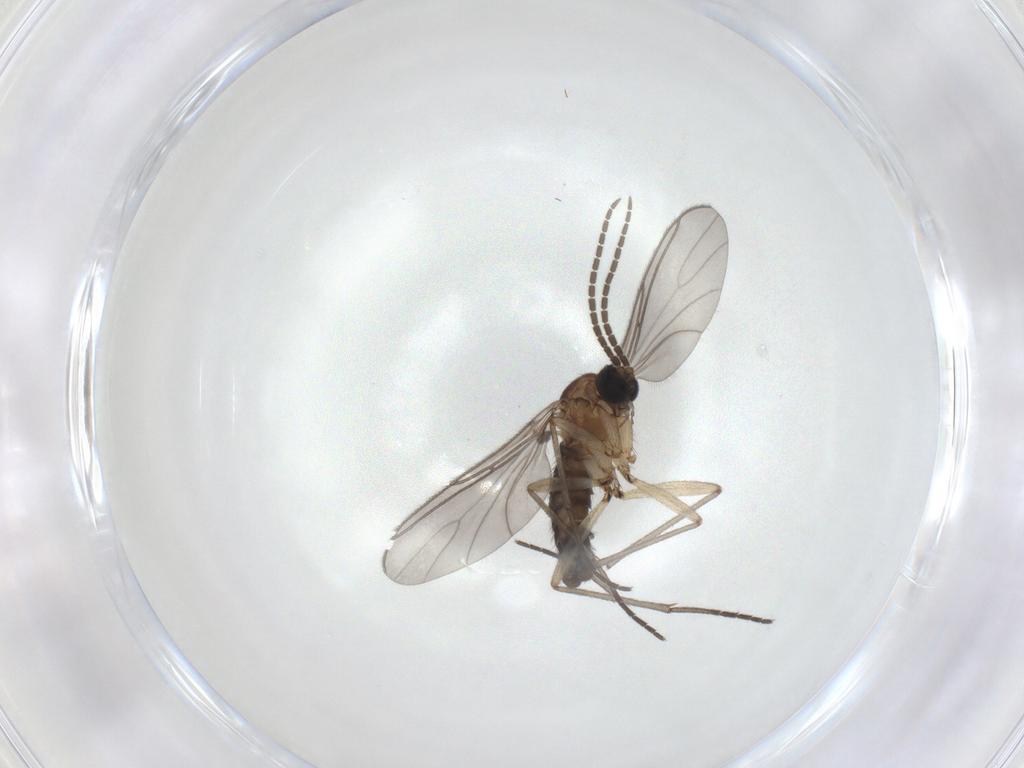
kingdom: Animalia
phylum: Arthropoda
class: Insecta
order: Diptera
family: Sciaridae
